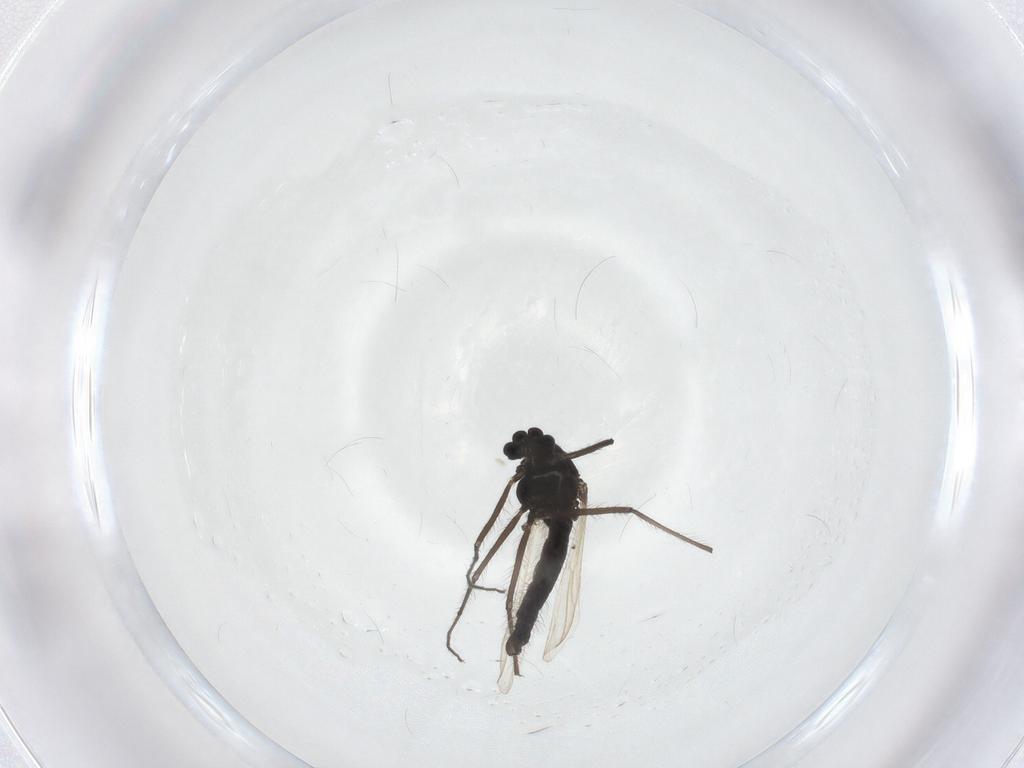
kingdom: Animalia
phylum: Arthropoda
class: Insecta
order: Diptera
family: Chironomidae
